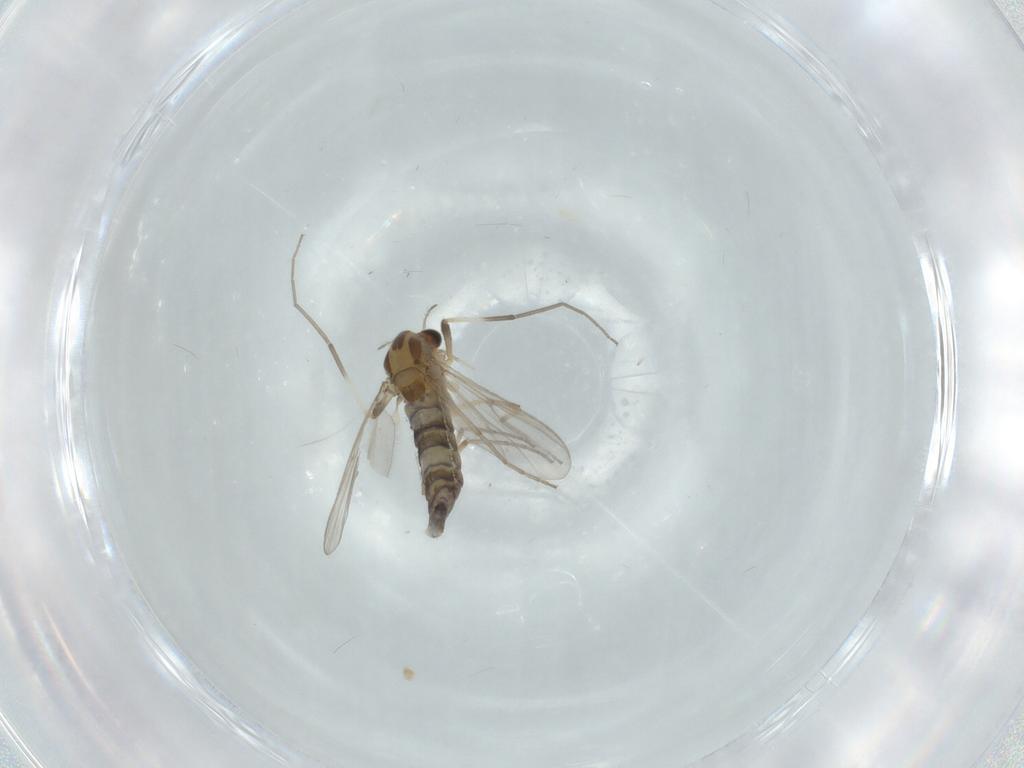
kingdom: Animalia
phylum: Arthropoda
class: Insecta
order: Diptera
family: Chironomidae
